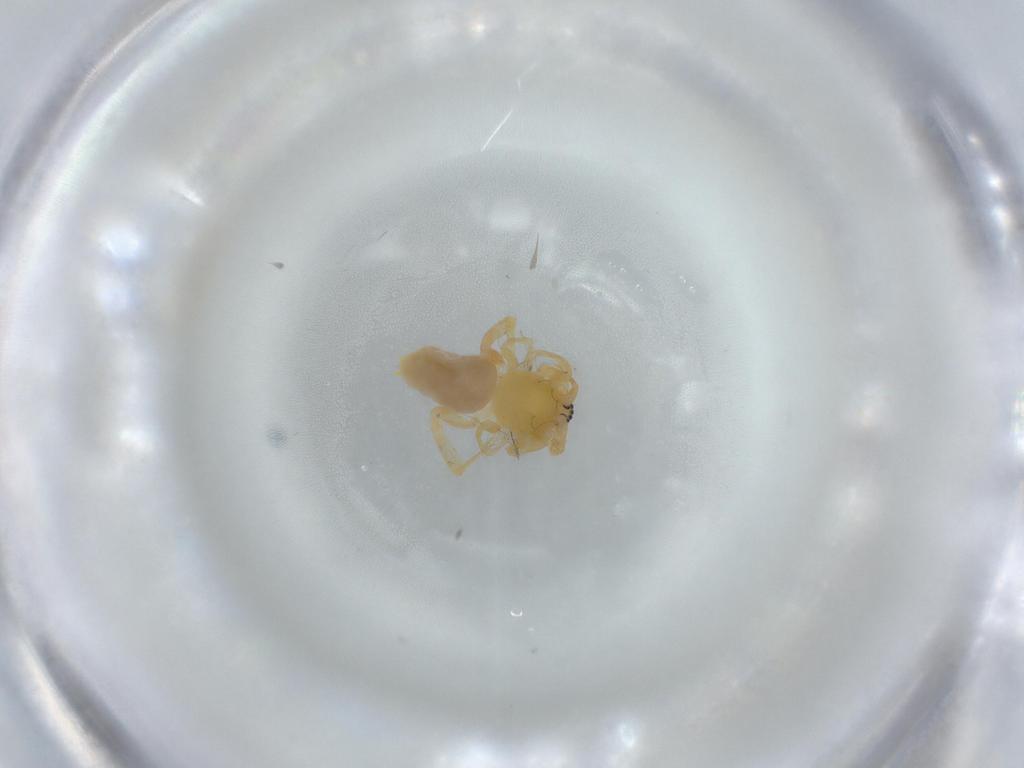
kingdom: Animalia
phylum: Arthropoda
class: Arachnida
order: Araneae
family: Anyphaenidae
